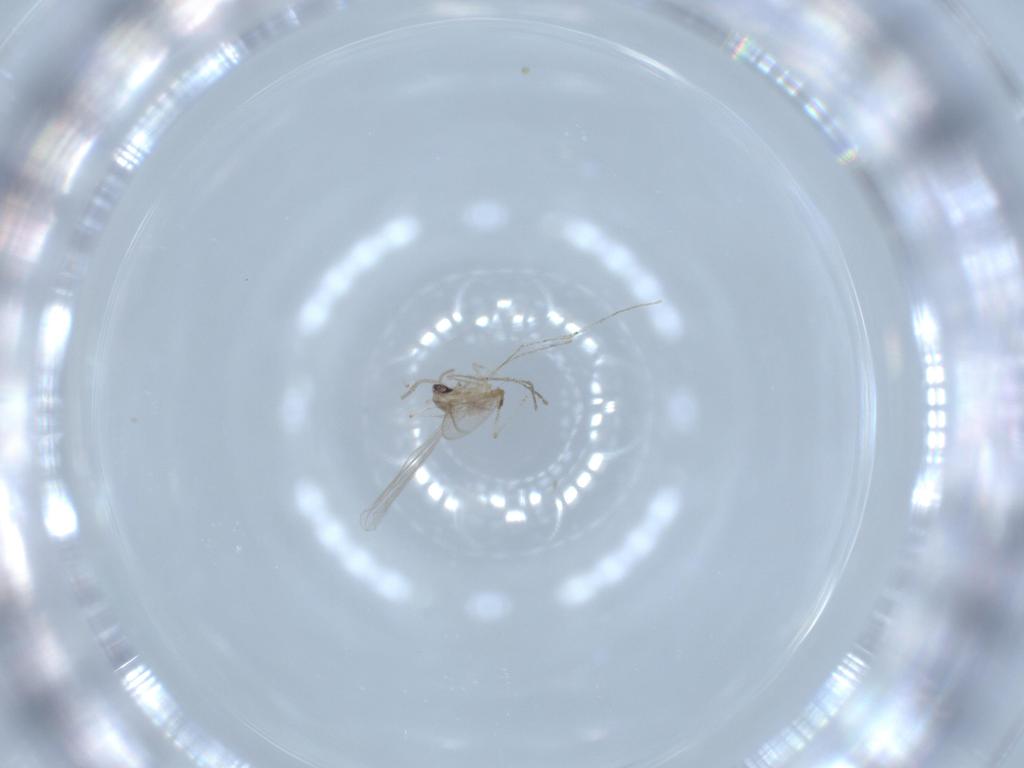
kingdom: Animalia
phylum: Arthropoda
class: Insecta
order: Diptera
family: Cecidomyiidae
